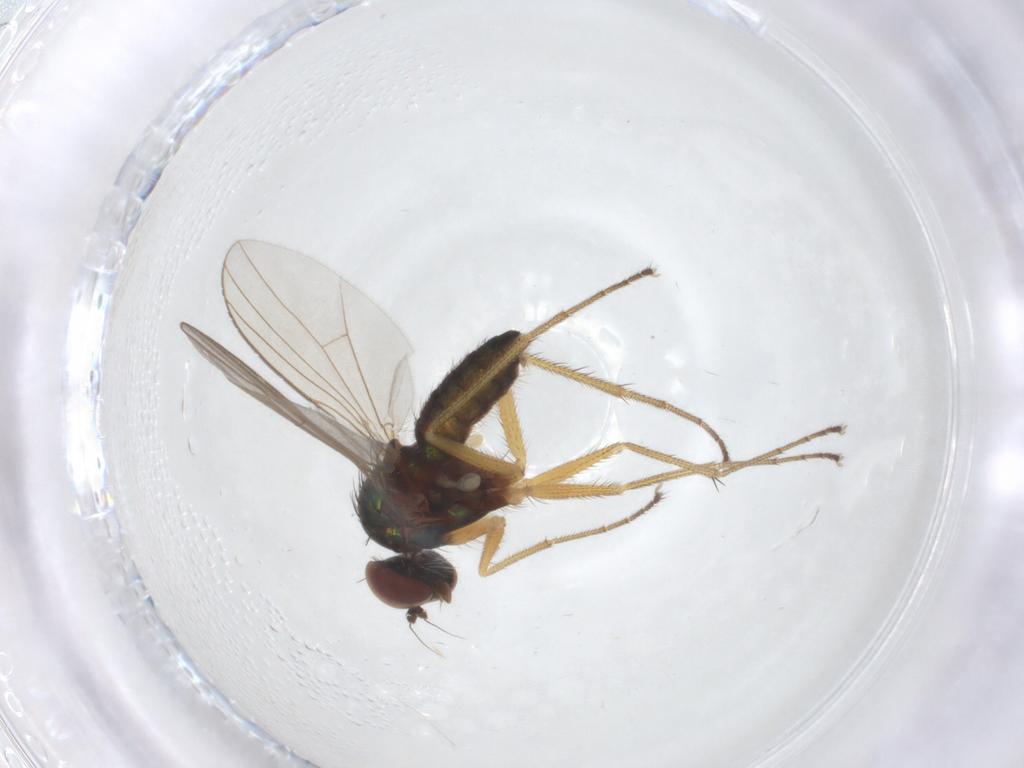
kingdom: Animalia
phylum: Arthropoda
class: Insecta
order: Diptera
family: Dolichopodidae
